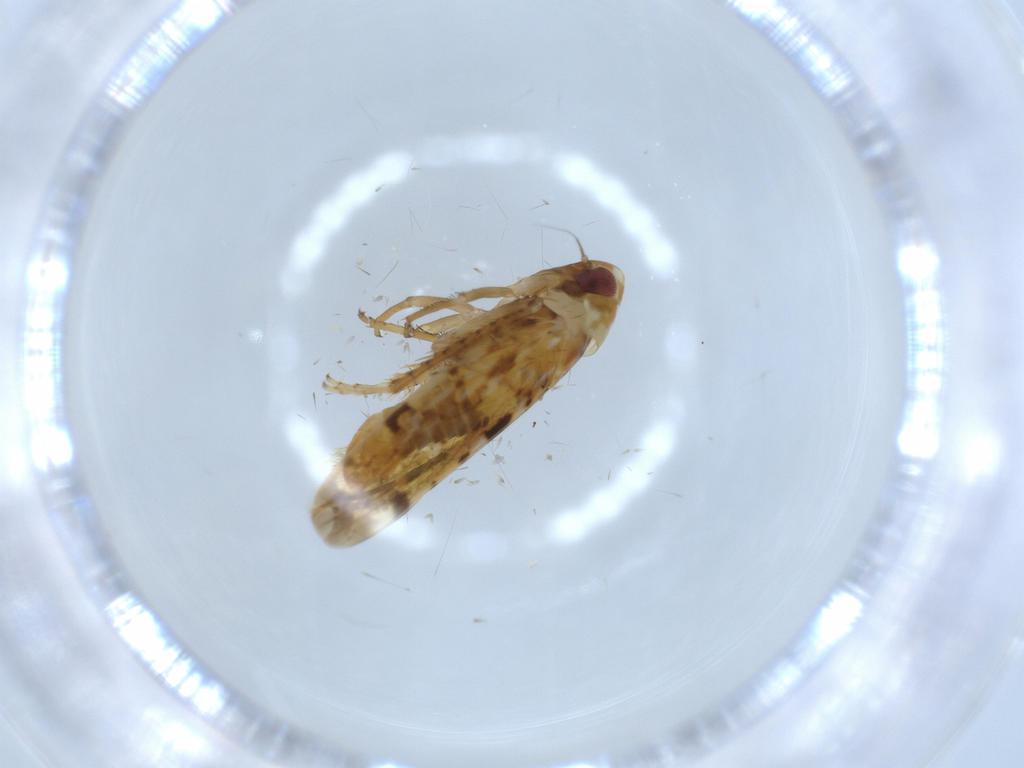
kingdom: Animalia
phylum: Arthropoda
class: Insecta
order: Hemiptera
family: Cicadellidae
